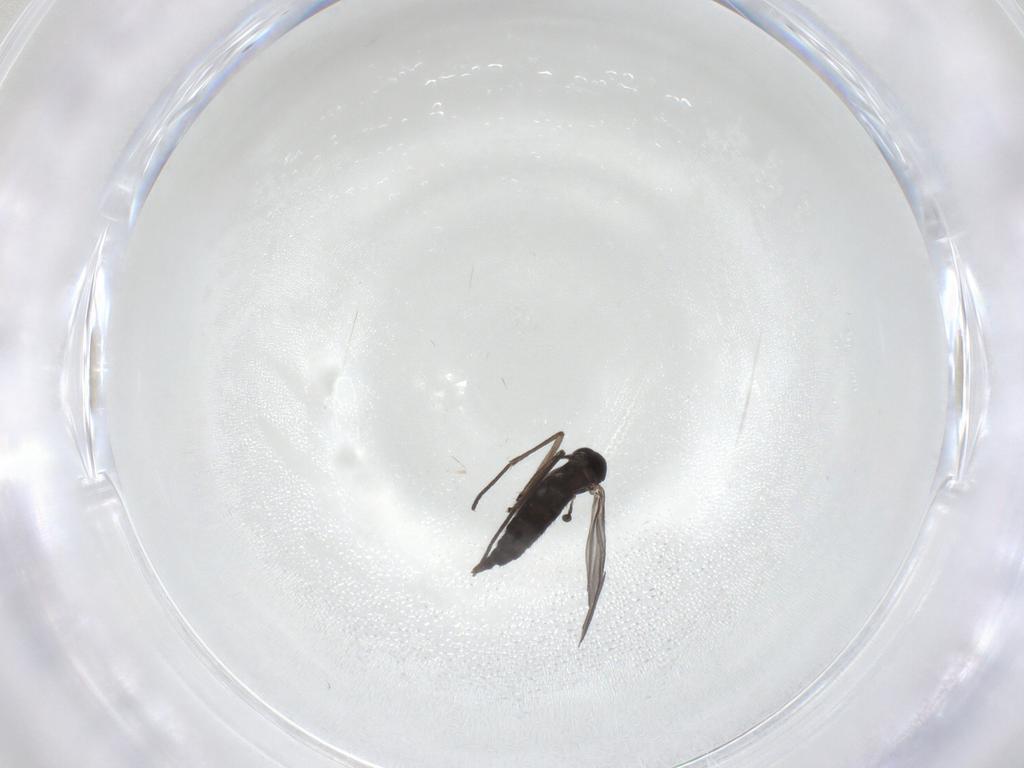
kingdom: Animalia
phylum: Arthropoda
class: Insecta
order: Diptera
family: Sciaridae
